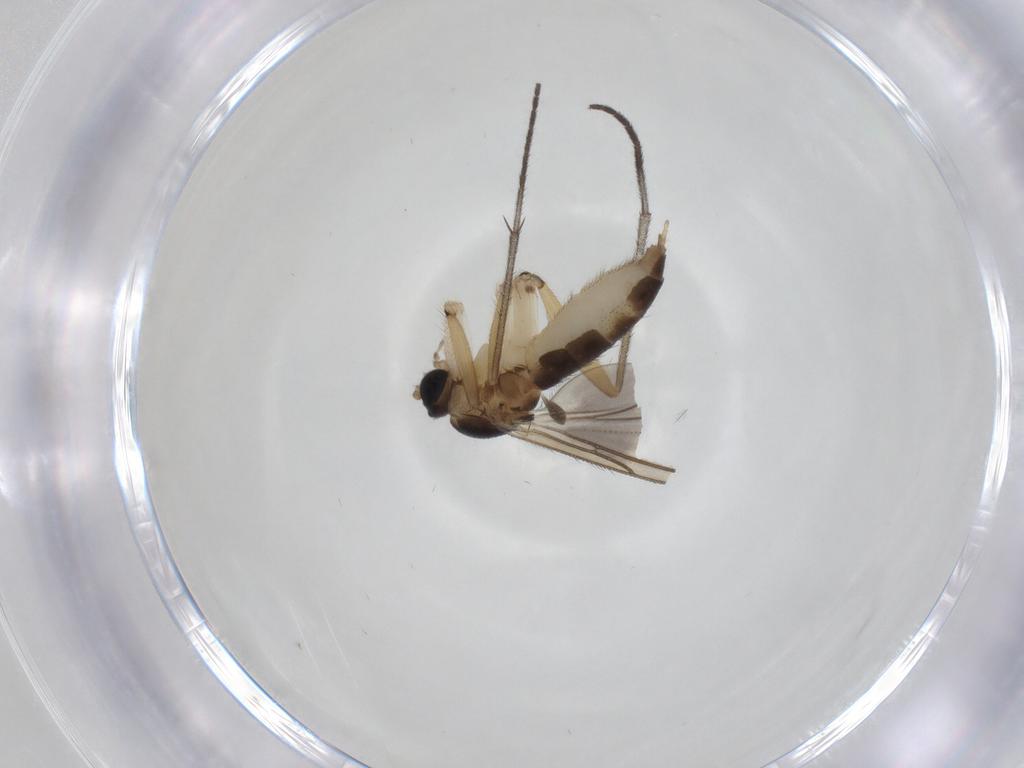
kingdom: Animalia
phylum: Arthropoda
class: Insecta
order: Diptera
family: Sciaridae
